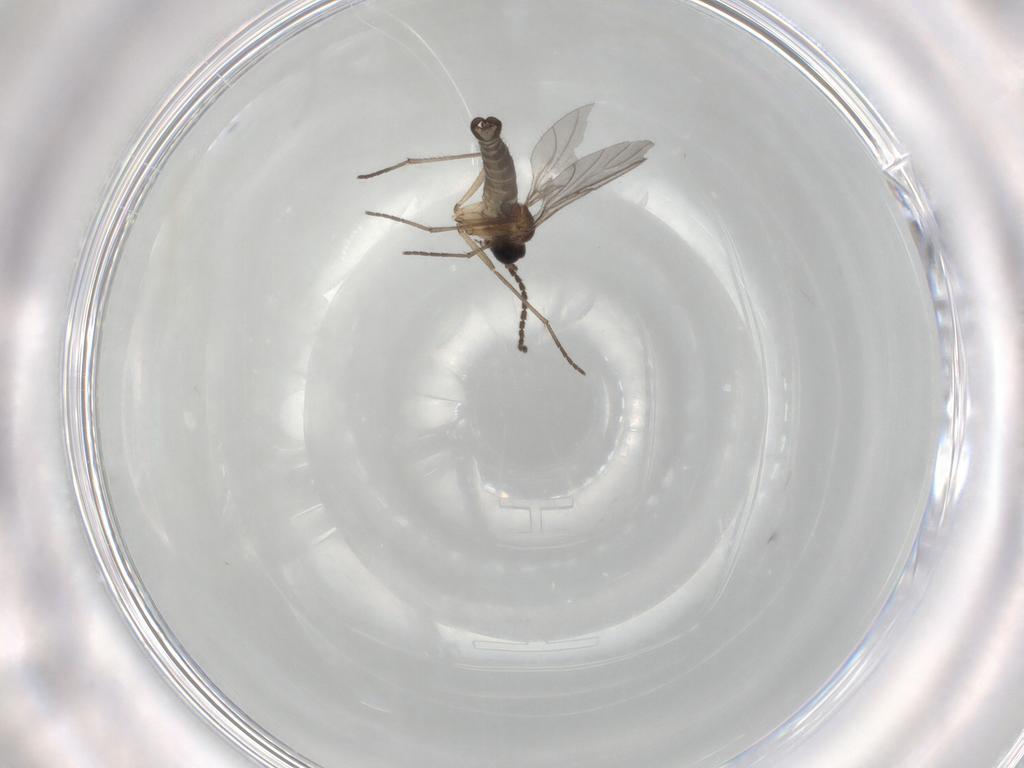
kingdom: Animalia
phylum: Arthropoda
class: Insecta
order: Diptera
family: Sciaridae
